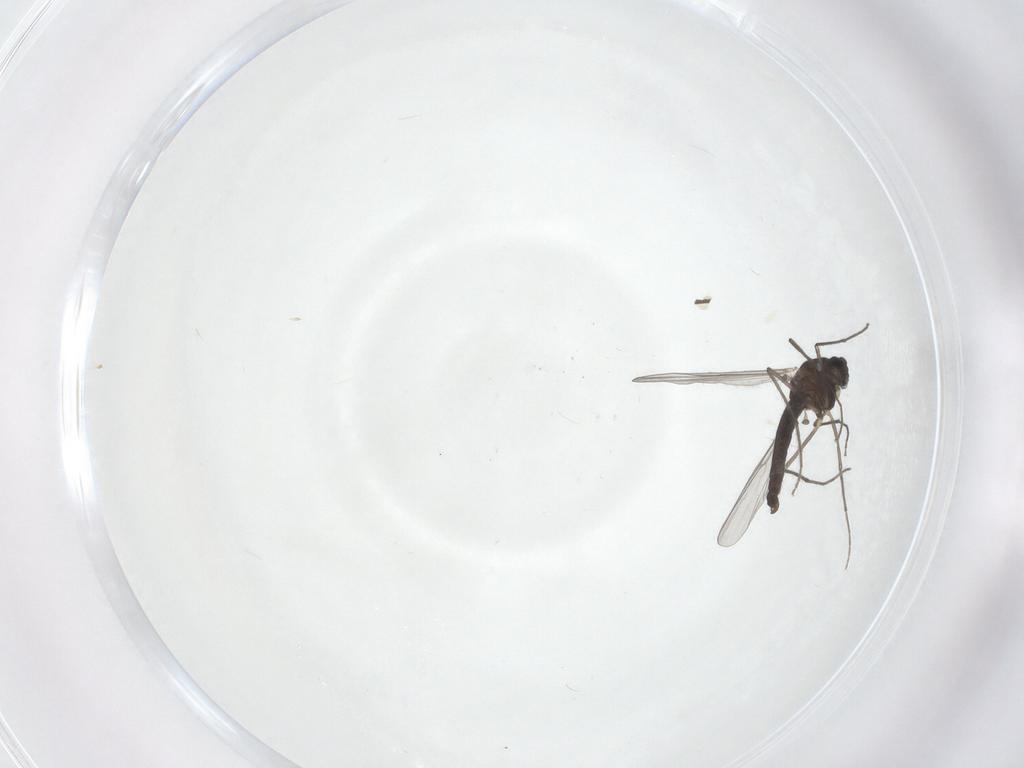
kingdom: Animalia
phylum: Arthropoda
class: Insecta
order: Diptera
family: Chironomidae
